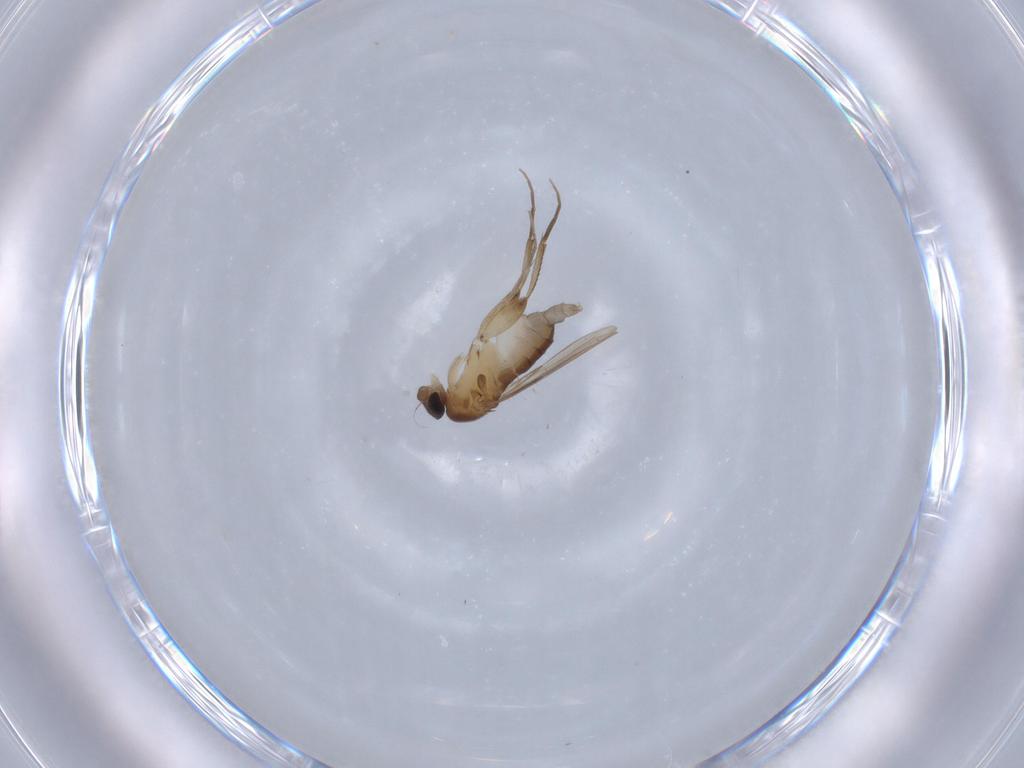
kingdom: Animalia
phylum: Arthropoda
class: Insecta
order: Diptera
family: Phoridae
